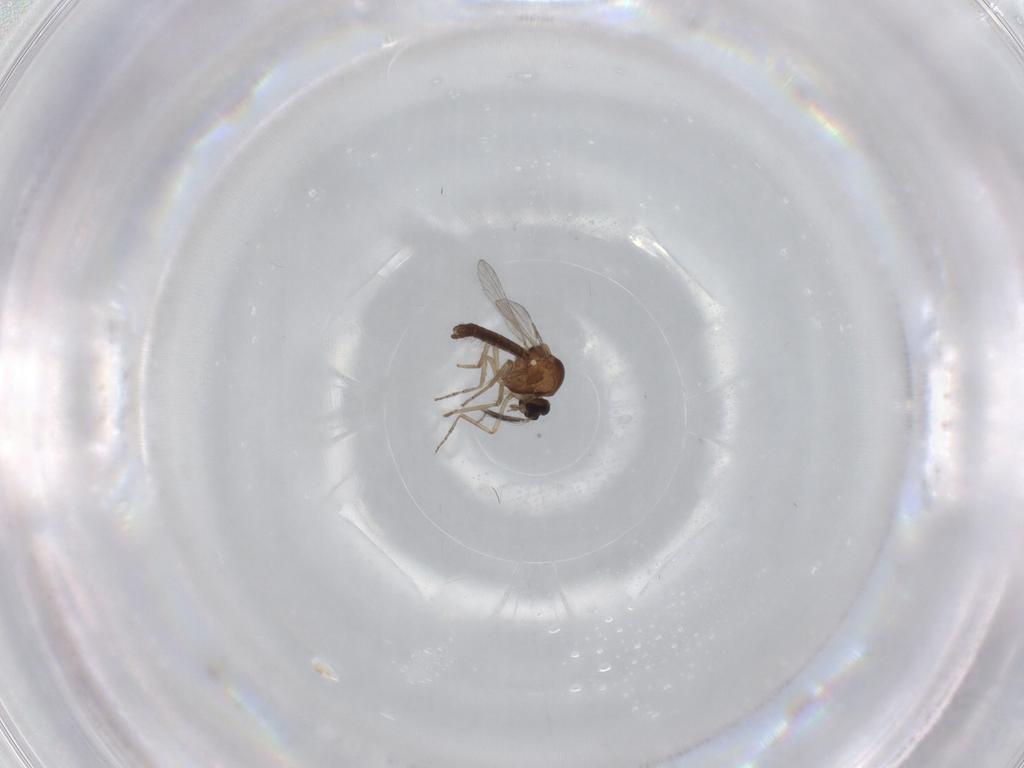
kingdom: Animalia
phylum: Arthropoda
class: Insecta
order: Diptera
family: Ceratopogonidae
